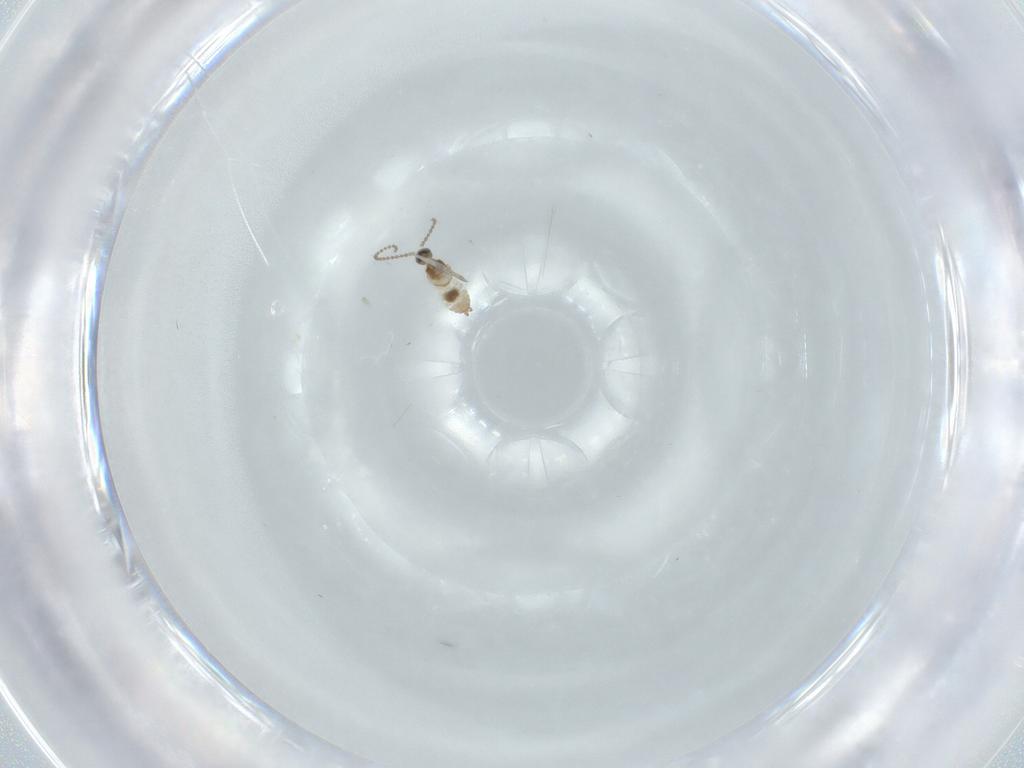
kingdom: Animalia
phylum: Arthropoda
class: Insecta
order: Diptera
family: Cecidomyiidae
